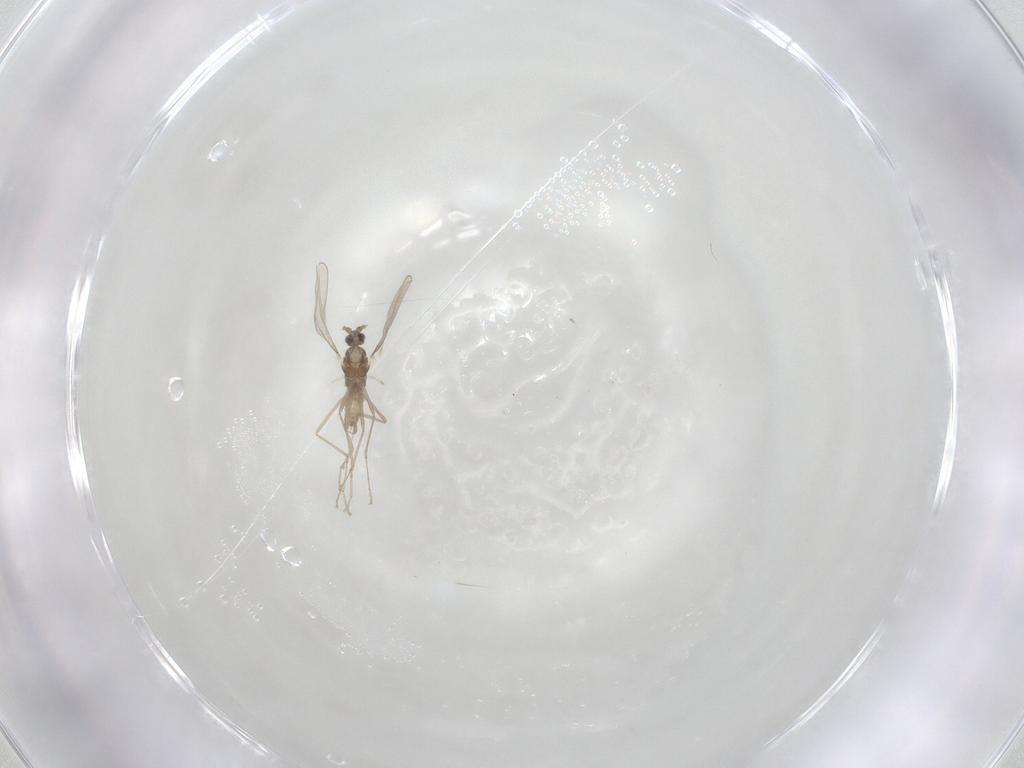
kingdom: Animalia
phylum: Arthropoda
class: Insecta
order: Diptera
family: Cecidomyiidae
